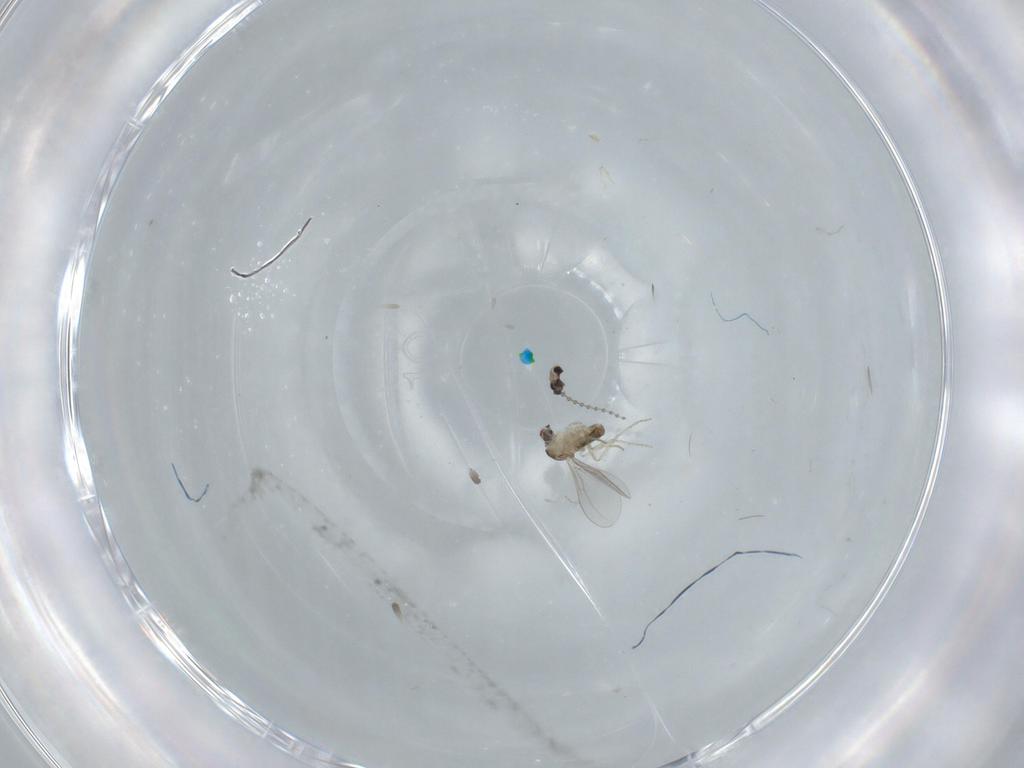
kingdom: Animalia
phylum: Arthropoda
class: Insecta
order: Diptera
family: Cecidomyiidae
